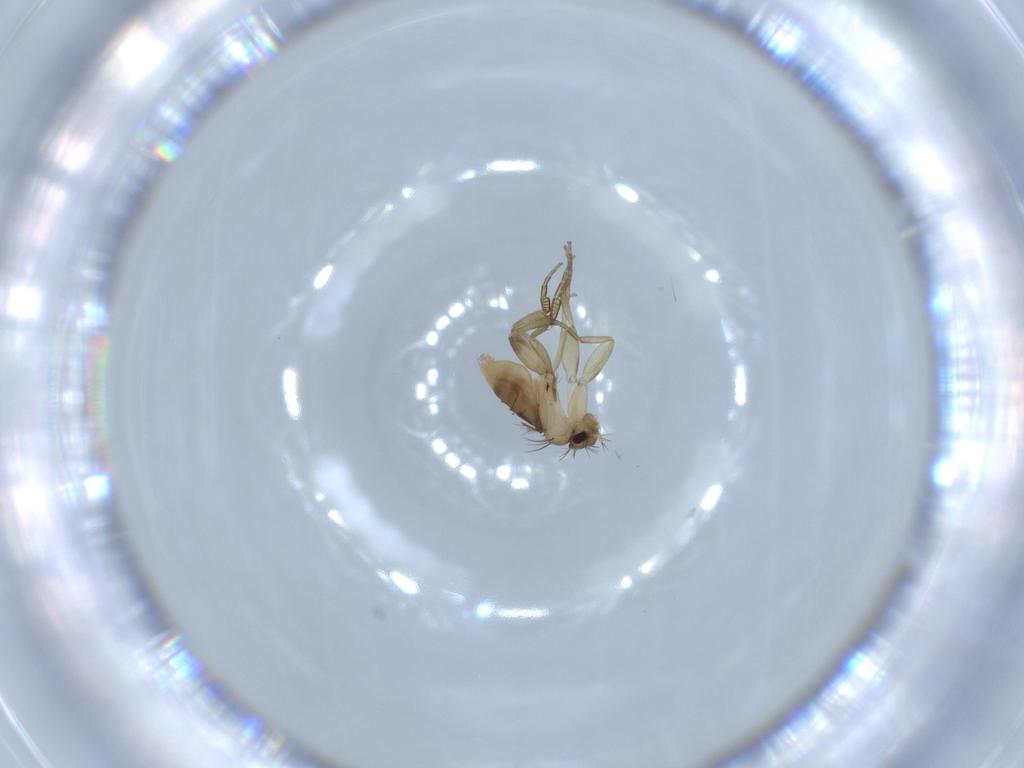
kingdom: Animalia
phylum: Arthropoda
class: Insecta
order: Diptera
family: Phoridae
